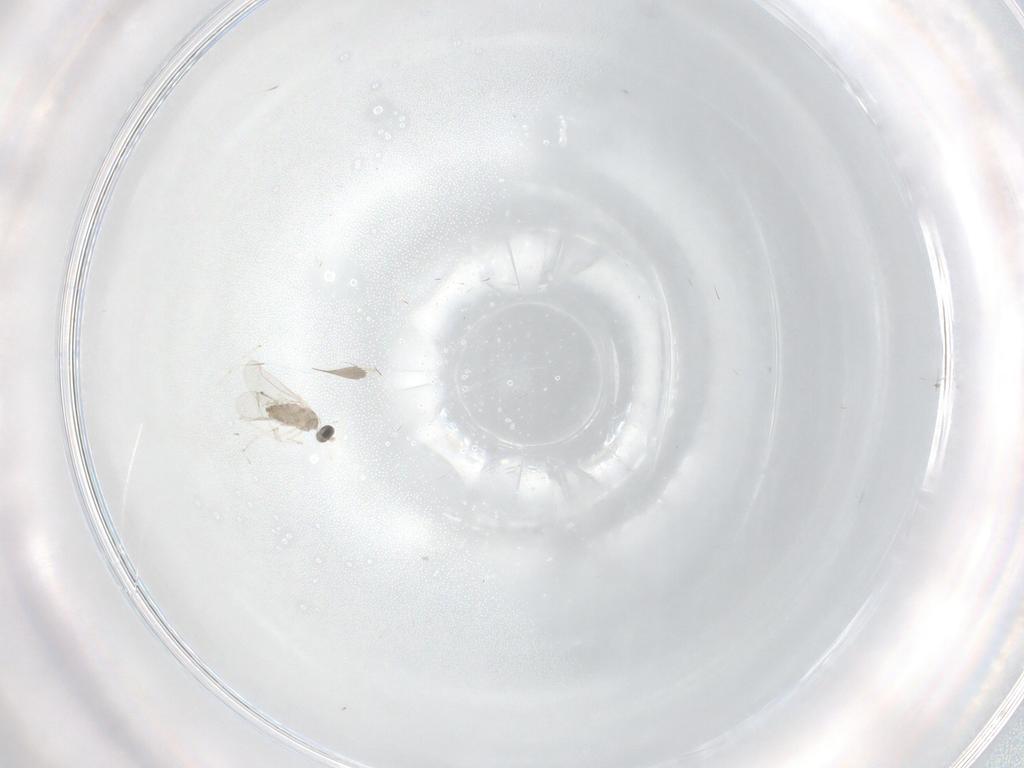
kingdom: Animalia
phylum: Arthropoda
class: Insecta
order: Diptera
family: Cecidomyiidae
